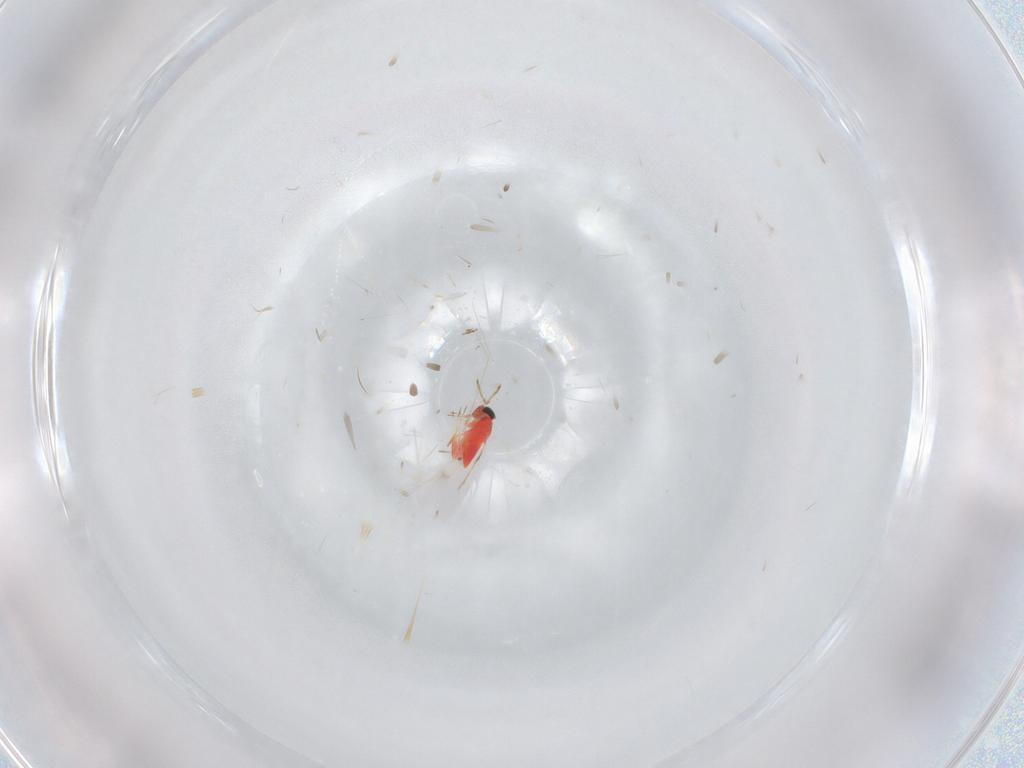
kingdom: Animalia
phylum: Arthropoda
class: Insecta
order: Hymenoptera
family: Trichogrammatidae
